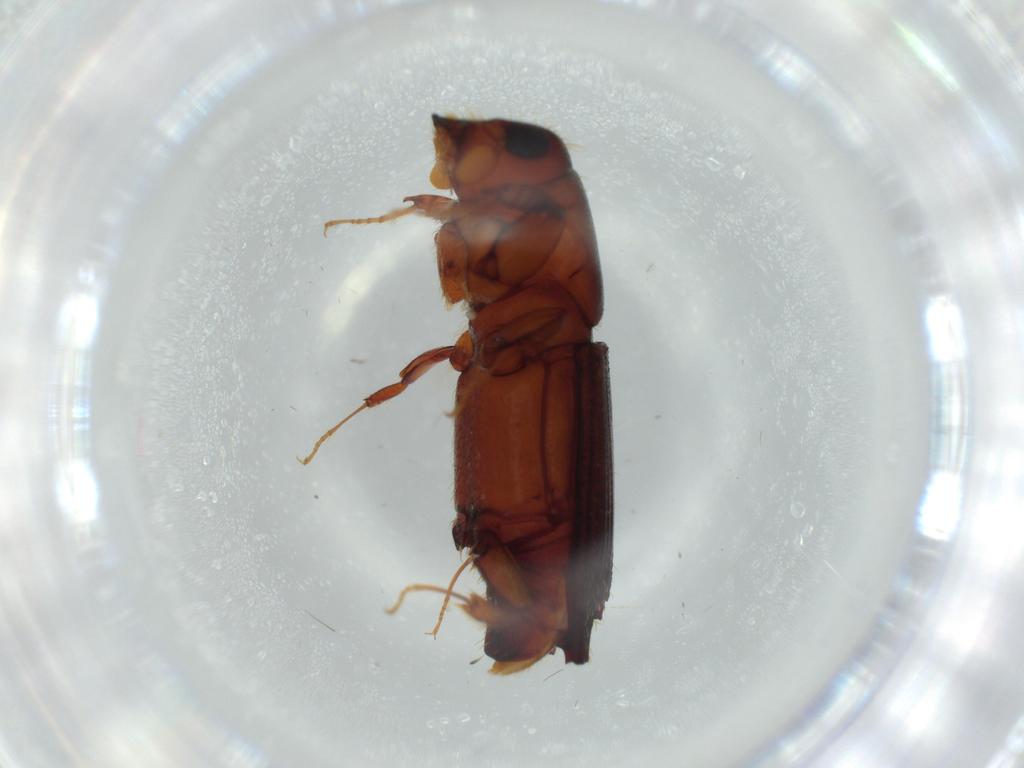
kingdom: Animalia
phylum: Arthropoda
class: Insecta
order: Coleoptera
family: Curculionidae
